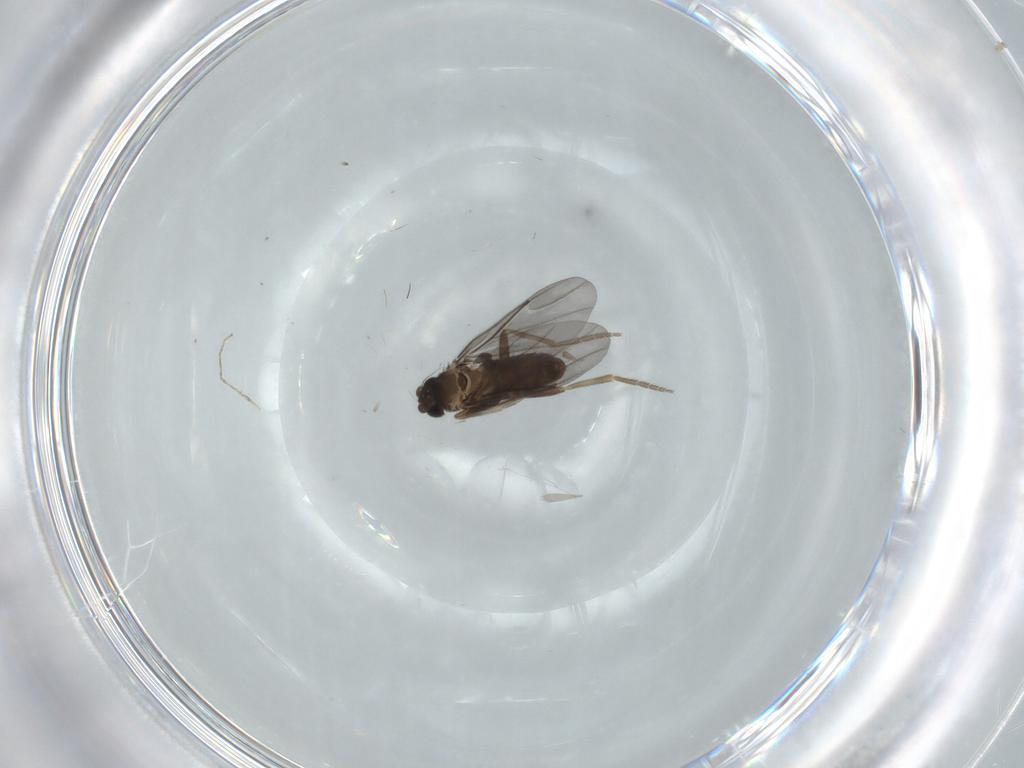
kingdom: Animalia
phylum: Arthropoda
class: Insecta
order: Diptera
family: Phoridae
